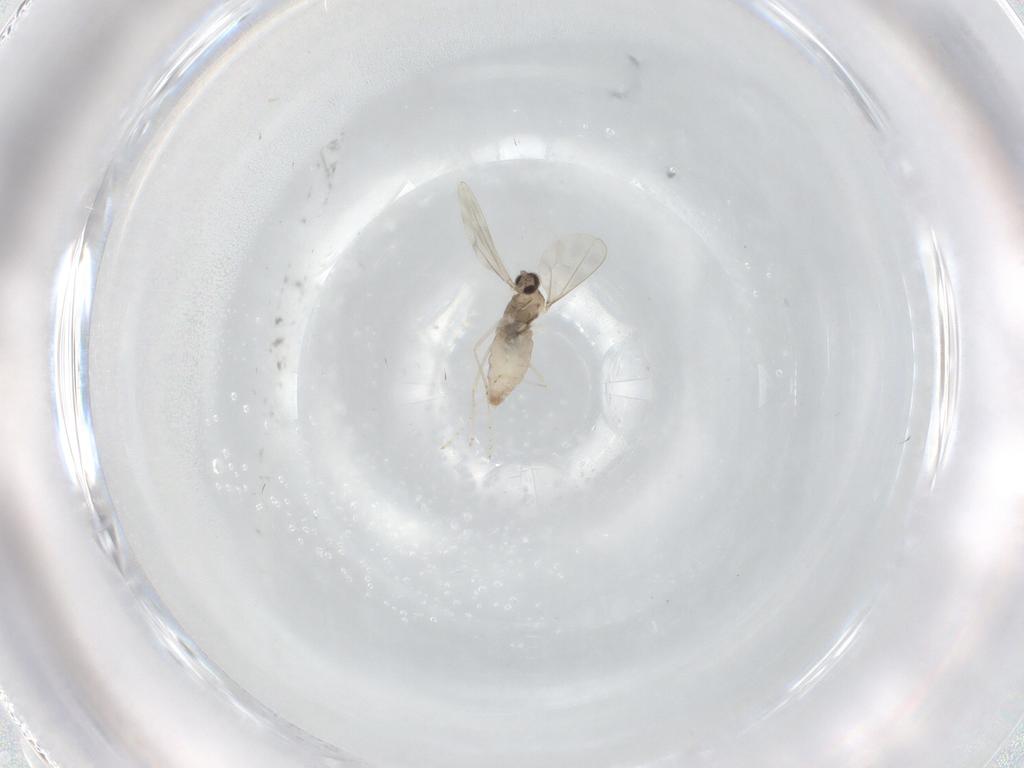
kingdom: Animalia
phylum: Arthropoda
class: Insecta
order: Diptera
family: Cecidomyiidae
